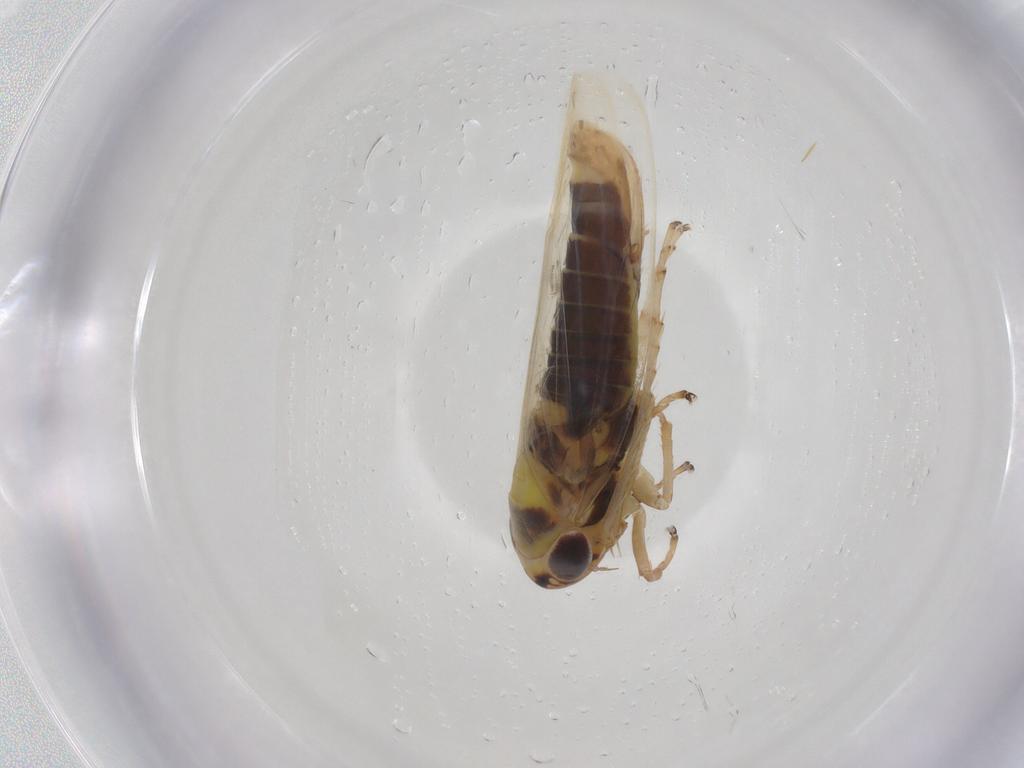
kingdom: Animalia
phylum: Arthropoda
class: Insecta
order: Hemiptera
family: Cicadellidae
